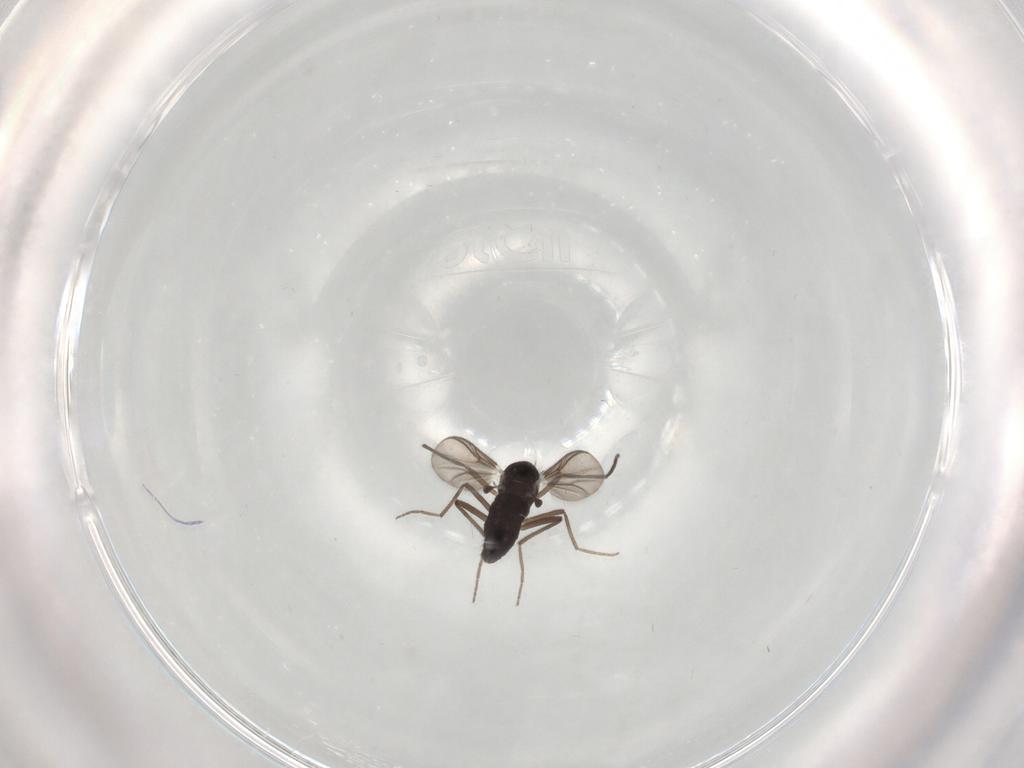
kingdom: Animalia
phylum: Arthropoda
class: Insecta
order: Diptera
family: Chironomidae
